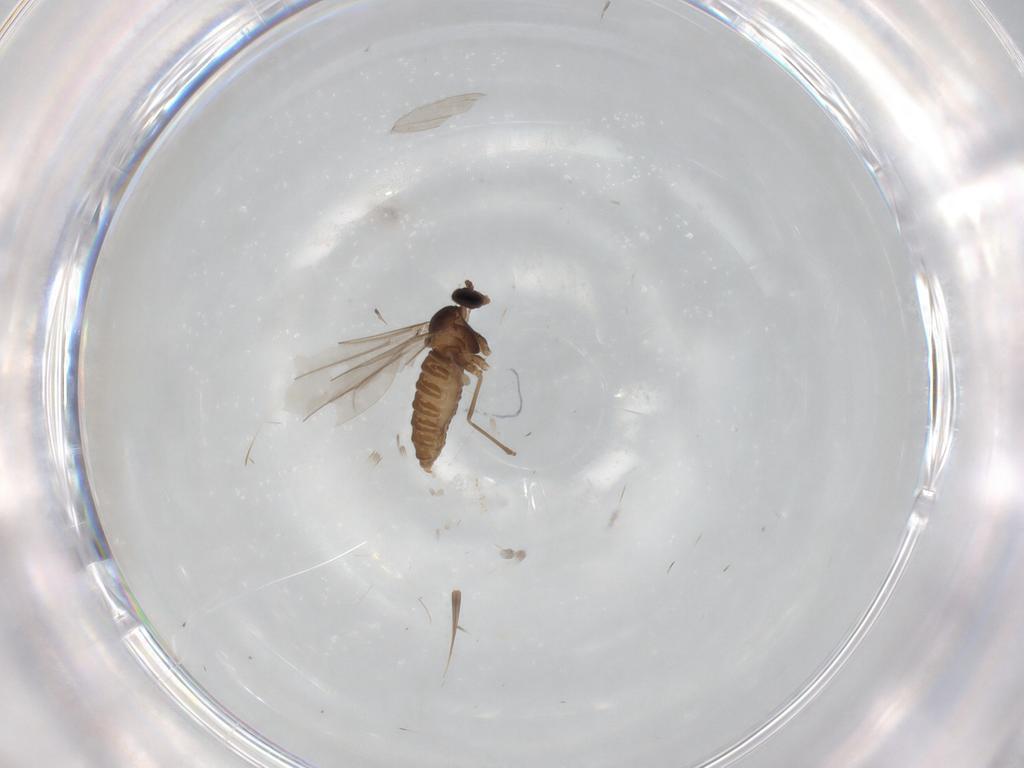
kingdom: Animalia
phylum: Arthropoda
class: Insecta
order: Diptera
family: Cecidomyiidae
